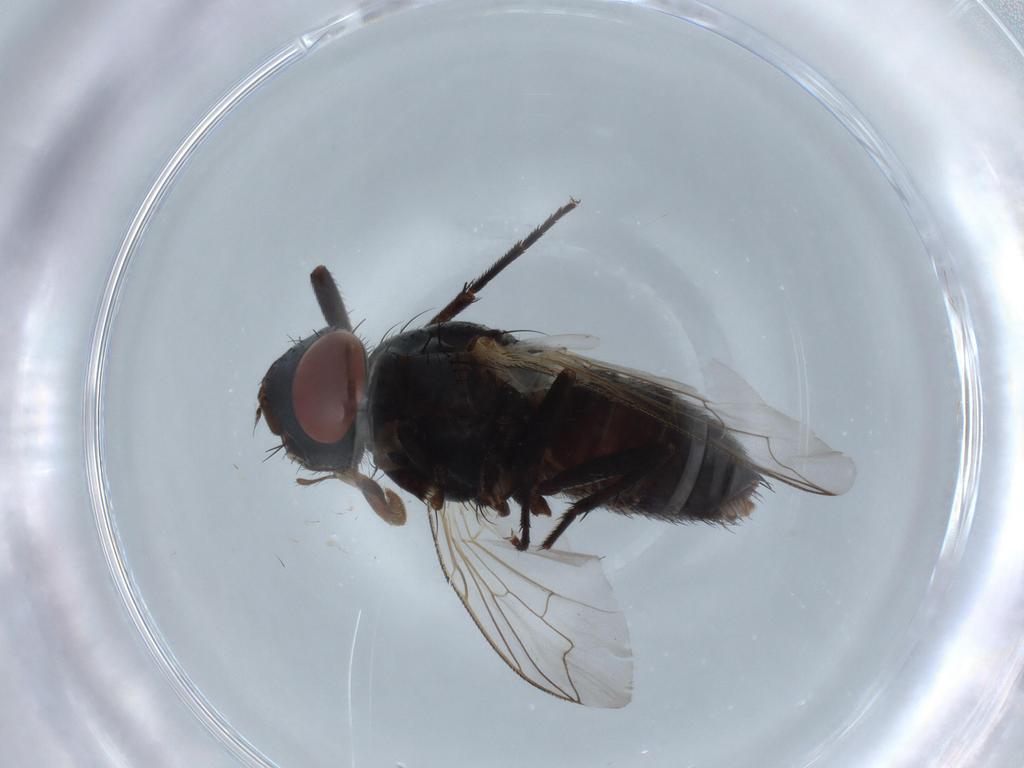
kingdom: Animalia
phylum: Arthropoda
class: Insecta
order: Diptera
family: Sarcophagidae
